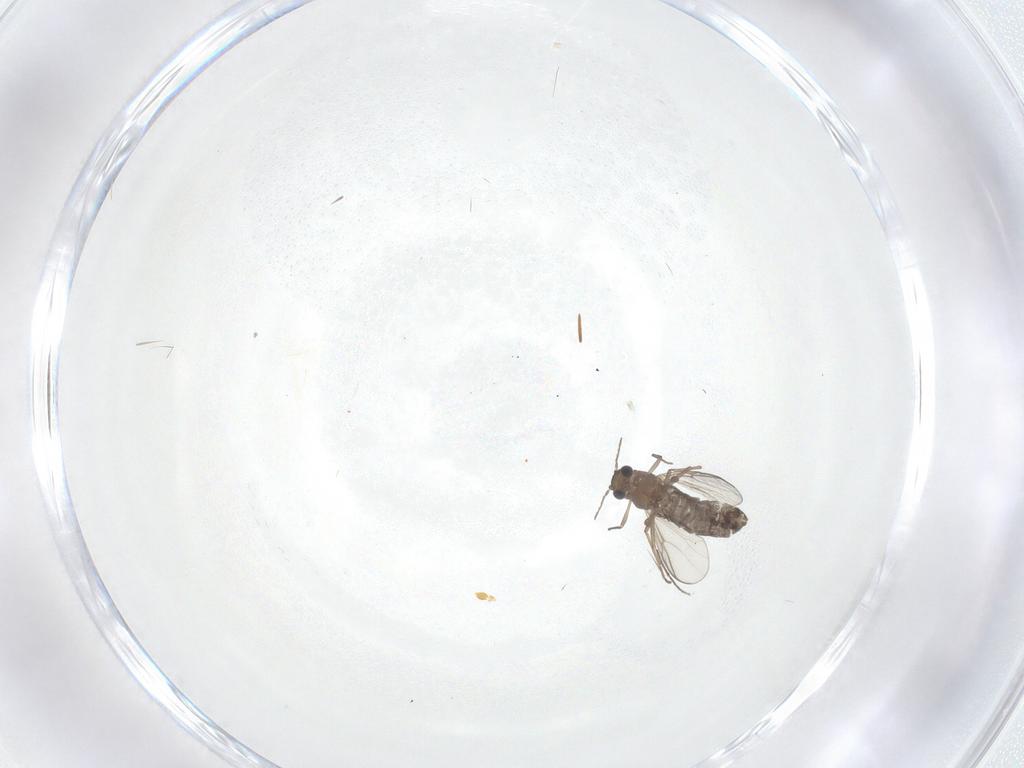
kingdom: Animalia
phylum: Arthropoda
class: Insecta
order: Diptera
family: Chironomidae
